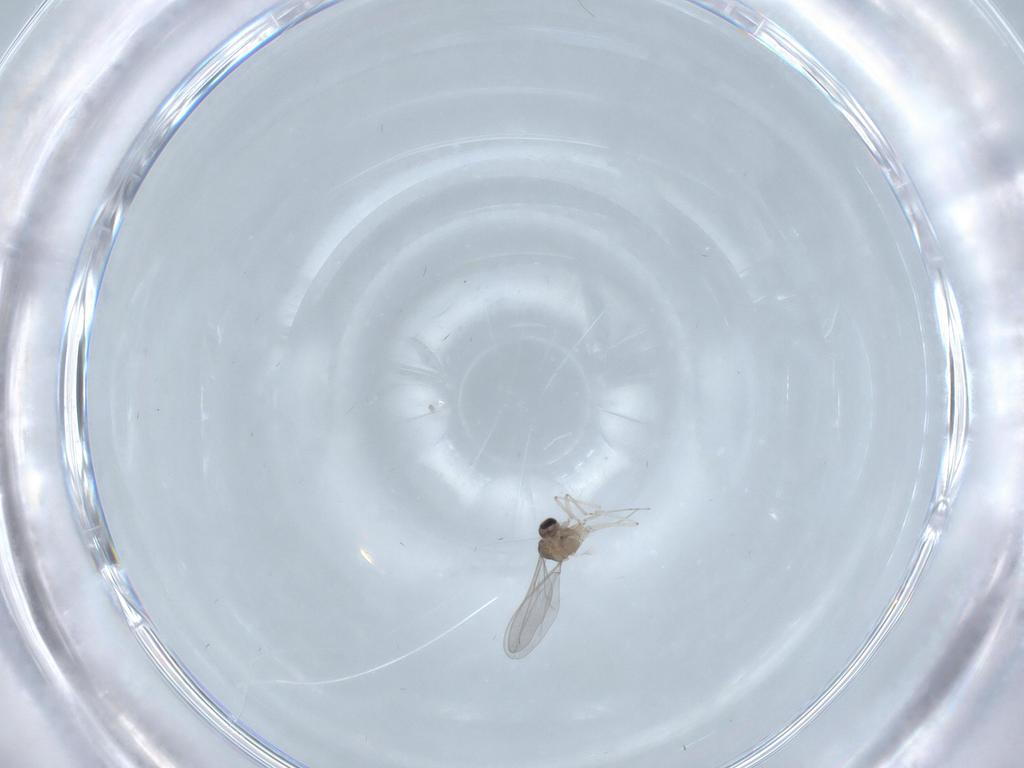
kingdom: Animalia
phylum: Arthropoda
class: Insecta
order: Diptera
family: Cecidomyiidae
